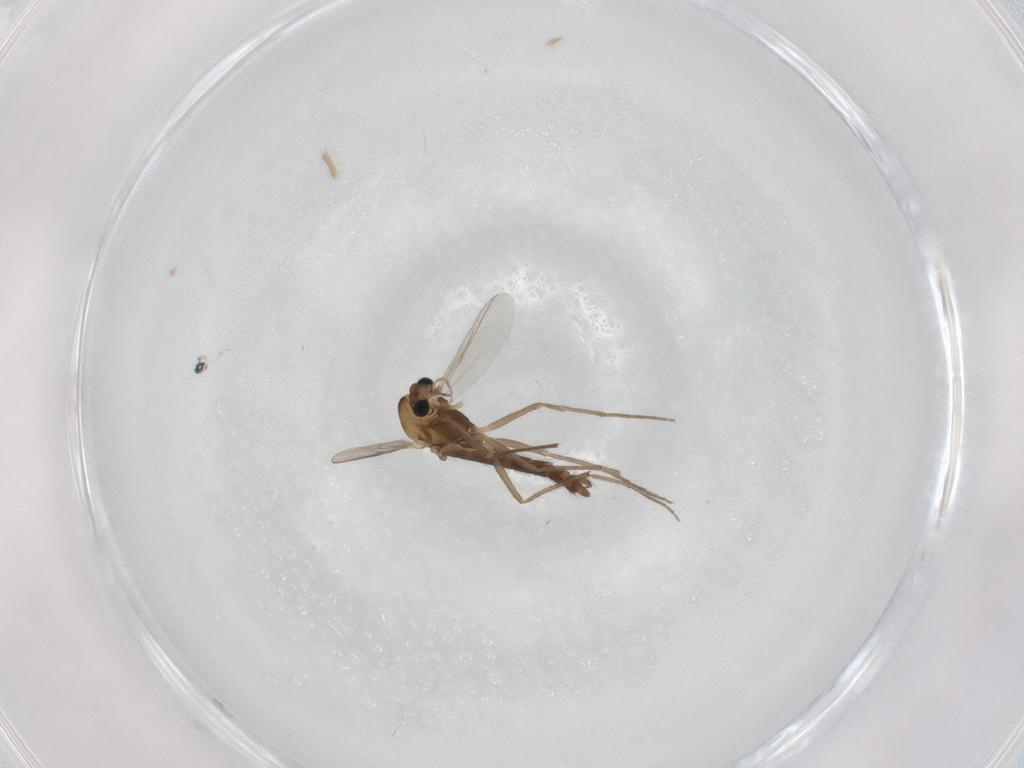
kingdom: Animalia
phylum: Arthropoda
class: Insecta
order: Diptera
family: Chironomidae
